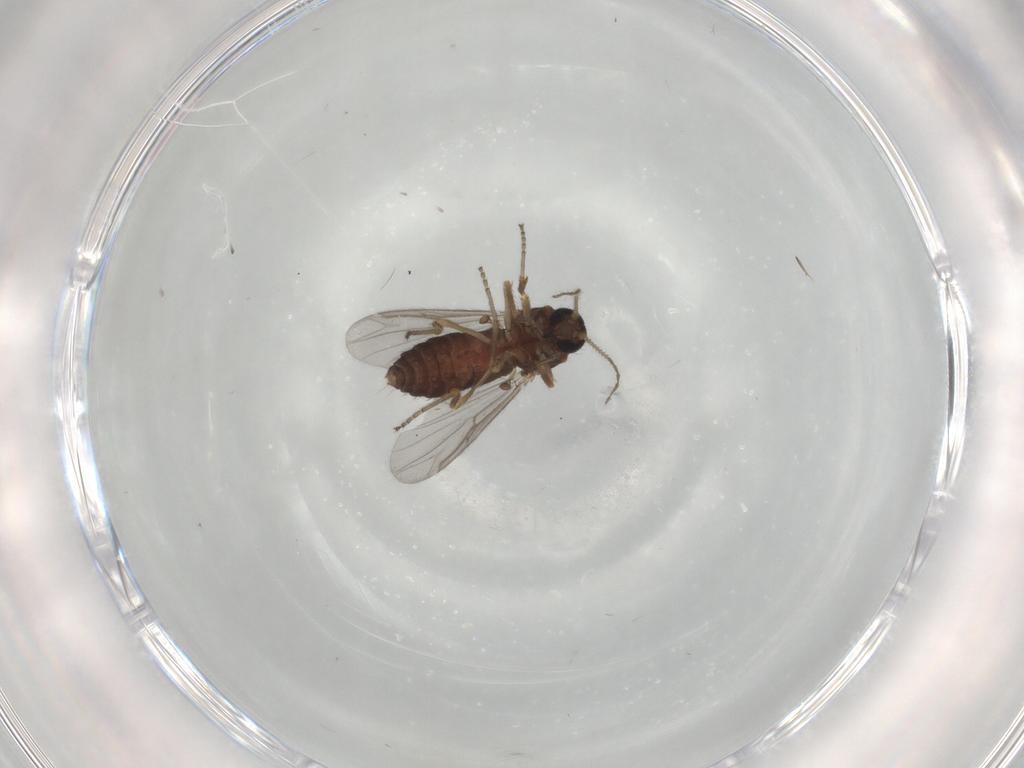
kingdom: Animalia
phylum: Arthropoda
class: Insecta
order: Diptera
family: Ceratopogonidae
